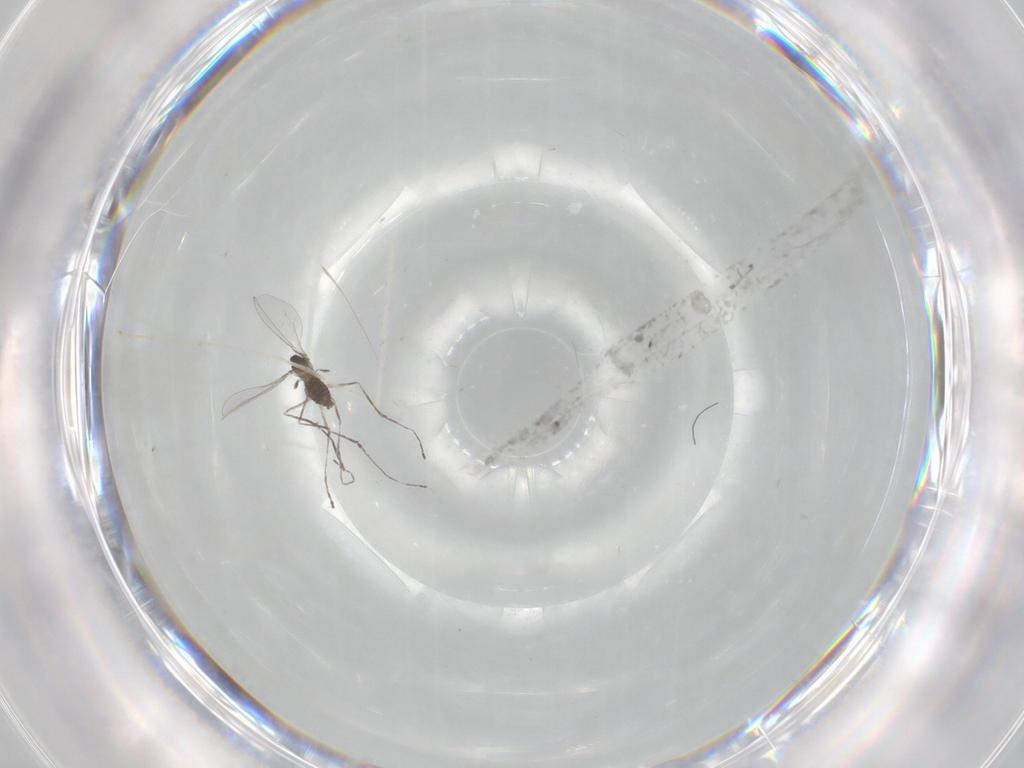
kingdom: Animalia
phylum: Arthropoda
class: Insecta
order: Diptera
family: Cecidomyiidae
